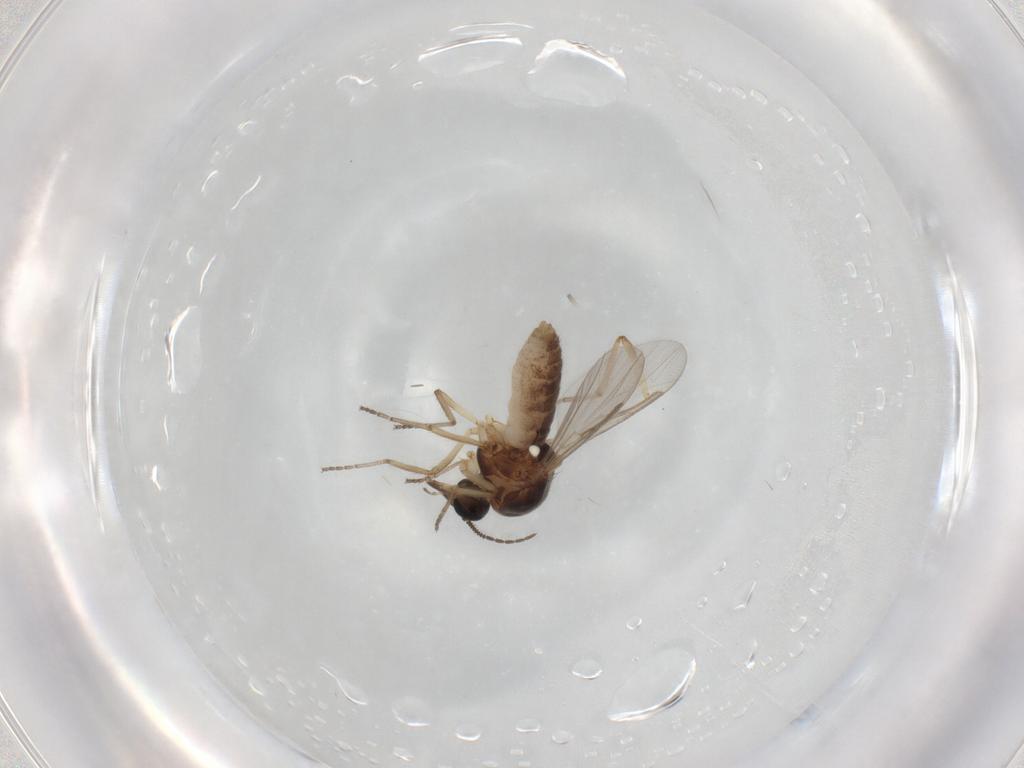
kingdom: Animalia
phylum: Arthropoda
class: Insecta
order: Diptera
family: Ceratopogonidae
